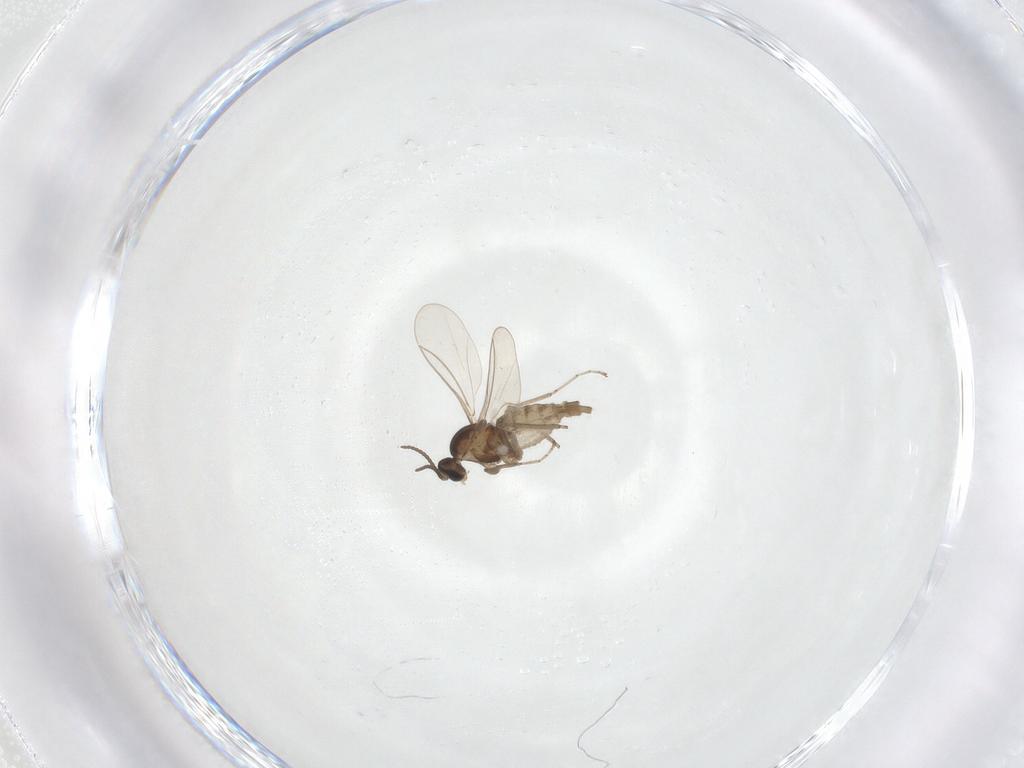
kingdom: Animalia
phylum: Arthropoda
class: Insecta
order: Diptera
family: Cecidomyiidae
